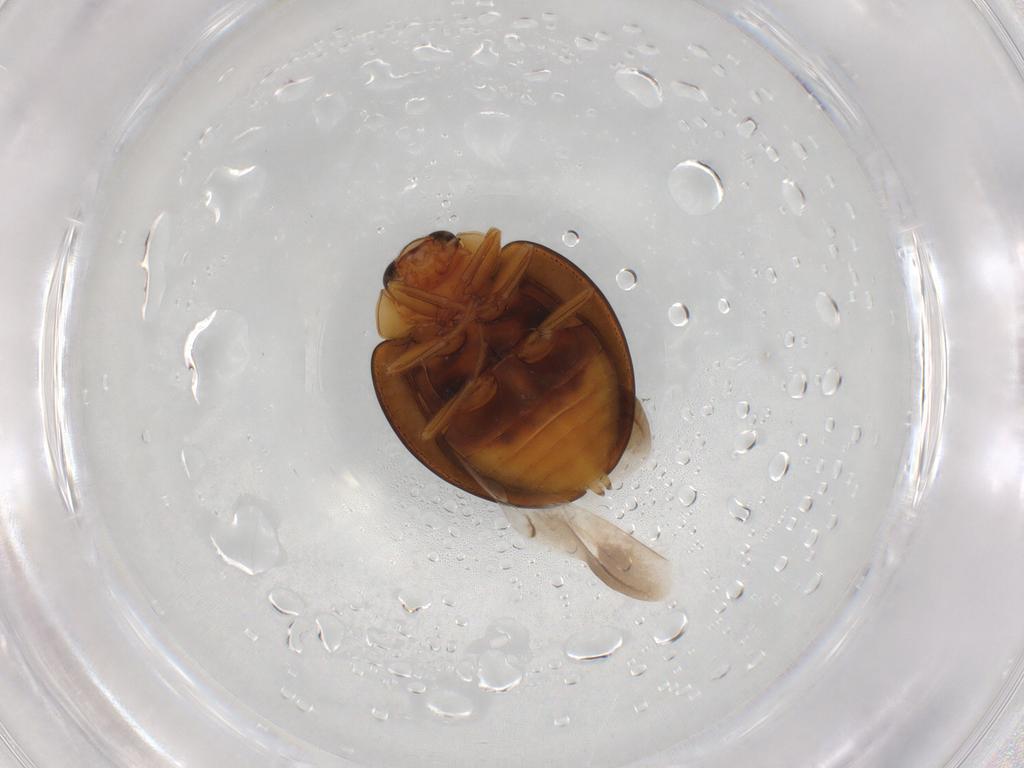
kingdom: Animalia
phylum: Arthropoda
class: Insecta
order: Coleoptera
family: Coccinellidae
